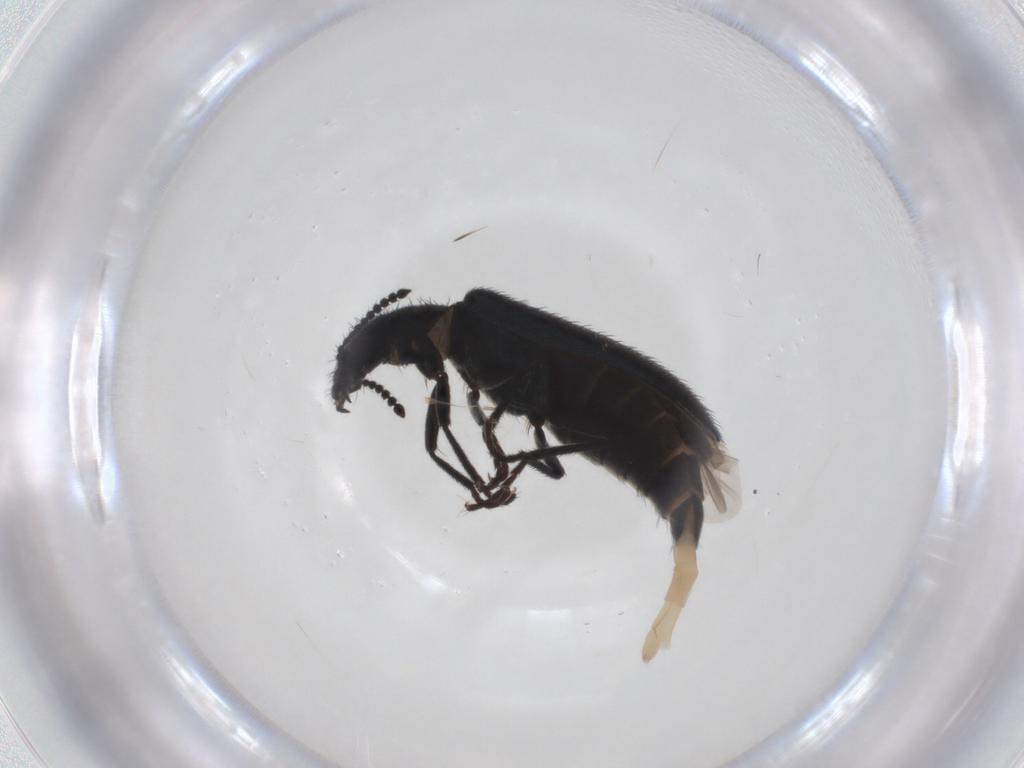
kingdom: Animalia
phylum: Arthropoda
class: Insecta
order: Coleoptera
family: Melyridae
